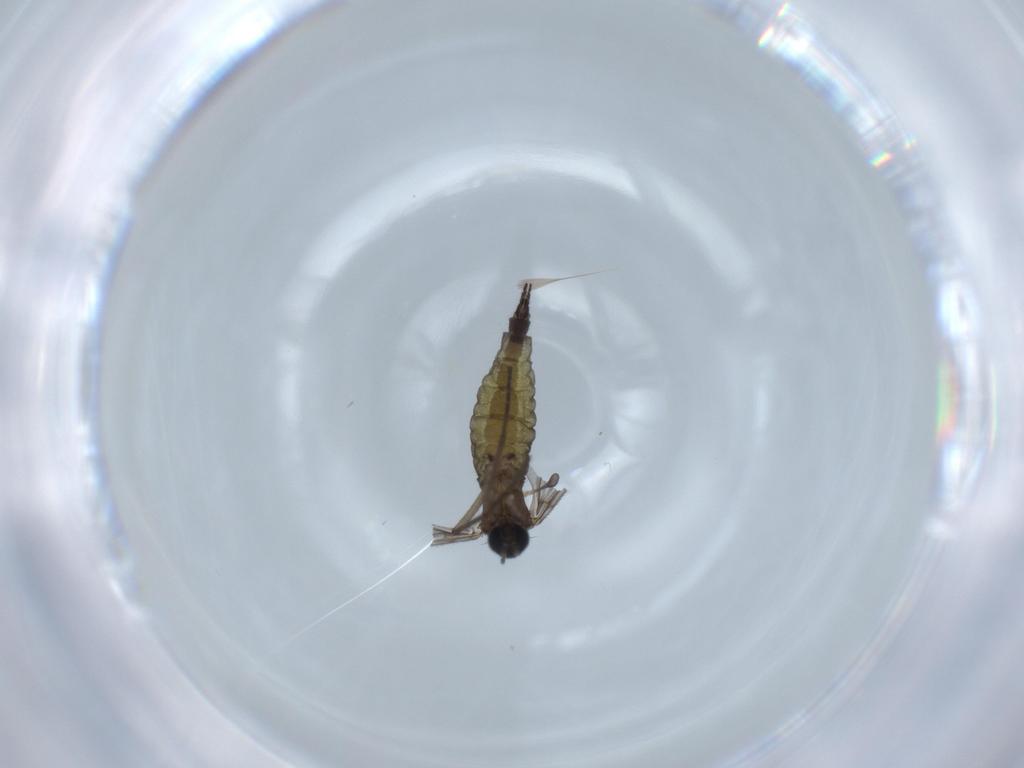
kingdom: Animalia
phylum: Arthropoda
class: Insecta
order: Diptera
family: Sciaridae
